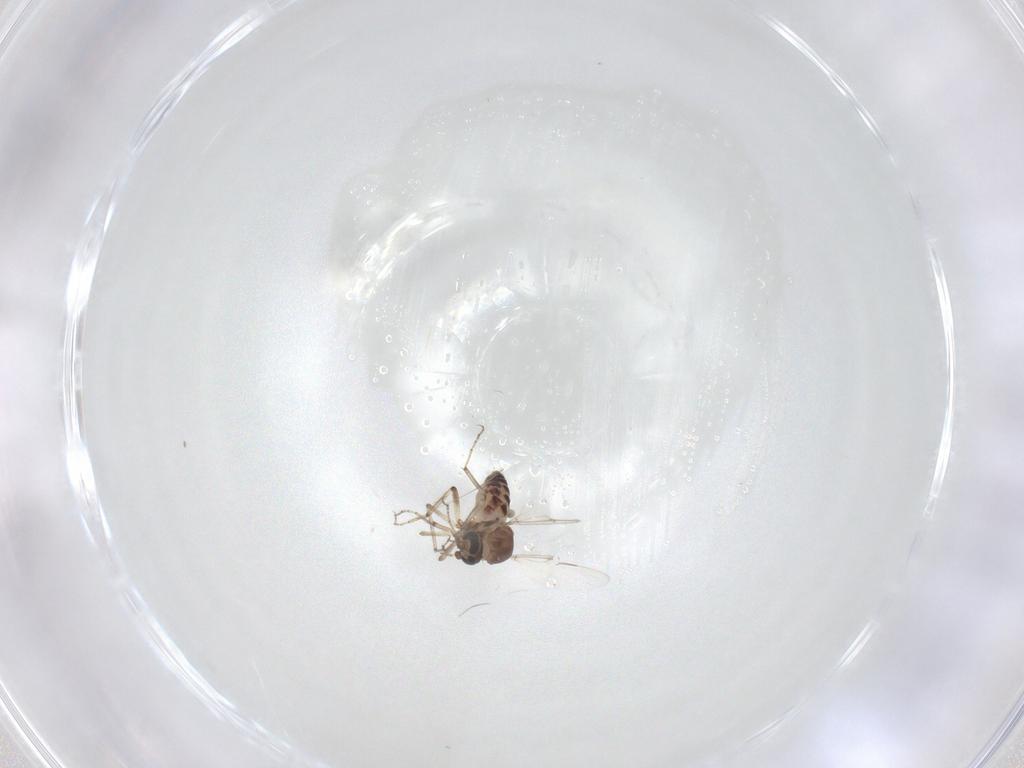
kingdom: Animalia
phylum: Arthropoda
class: Insecta
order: Diptera
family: Ceratopogonidae
